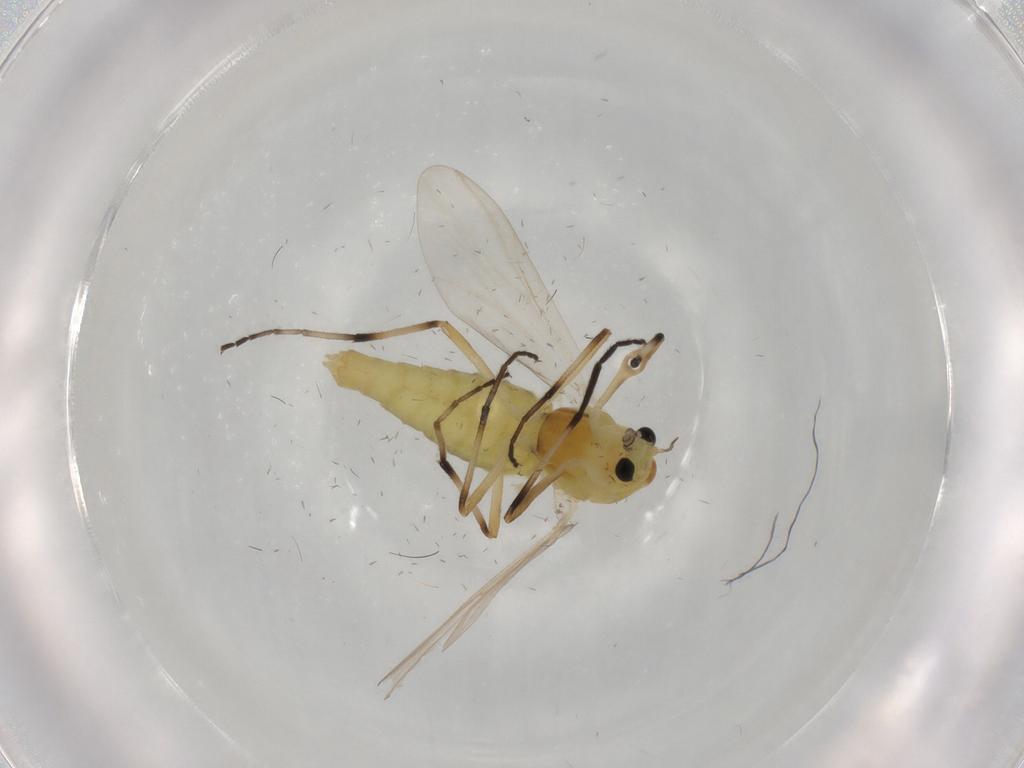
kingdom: Animalia
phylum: Arthropoda
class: Insecta
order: Diptera
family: Chironomidae
